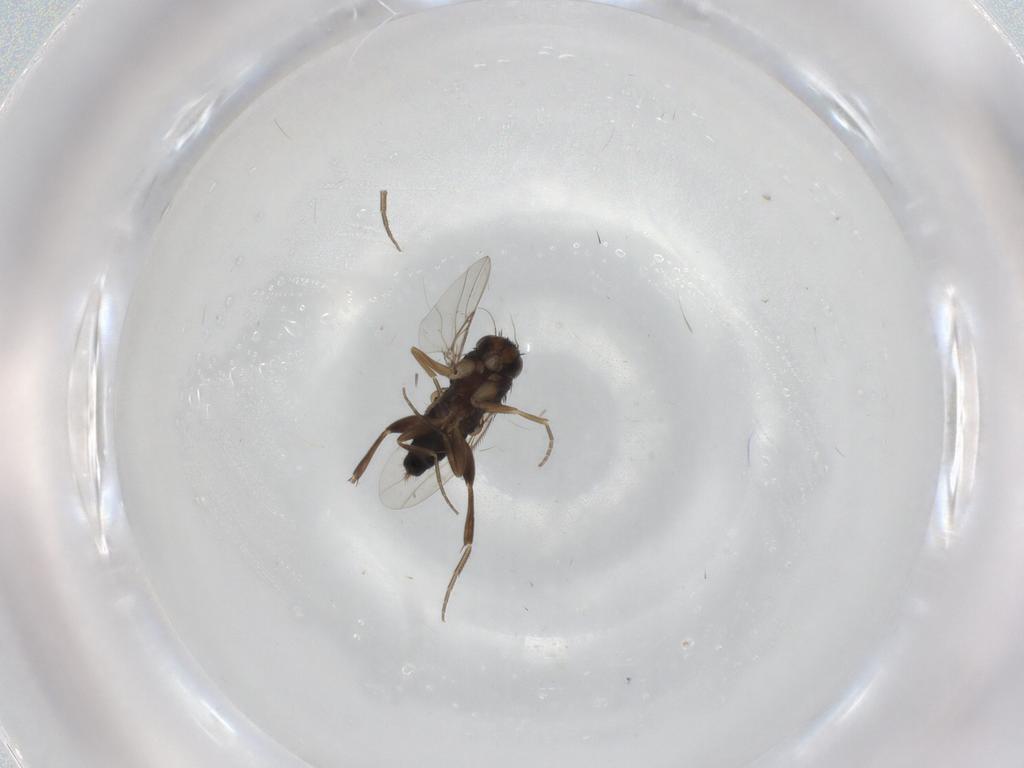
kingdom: Animalia
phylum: Arthropoda
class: Insecta
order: Diptera
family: Phoridae
